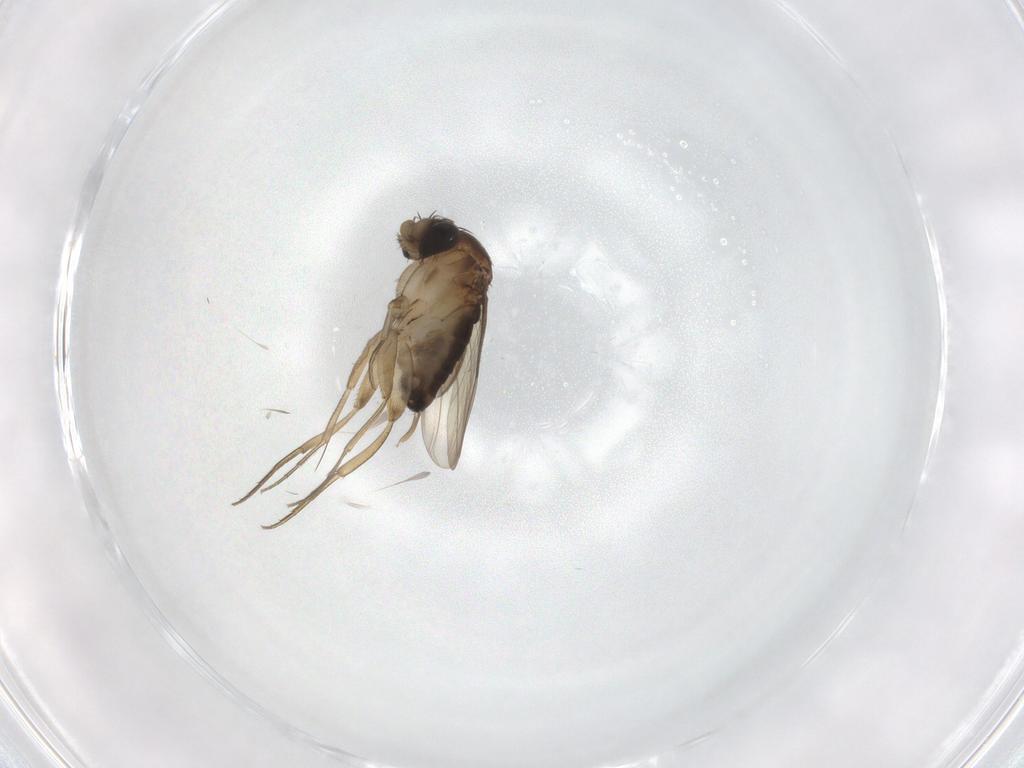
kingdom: Animalia
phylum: Arthropoda
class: Insecta
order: Diptera
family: Phoridae
